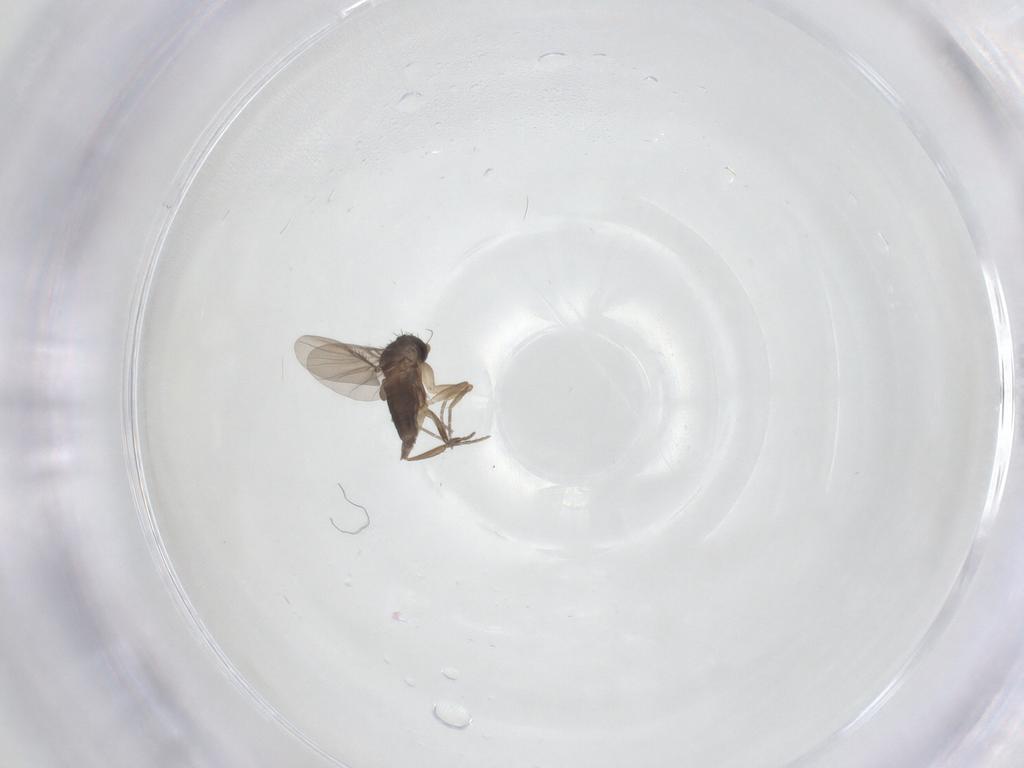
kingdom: Animalia
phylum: Arthropoda
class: Insecta
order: Diptera
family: Phoridae
